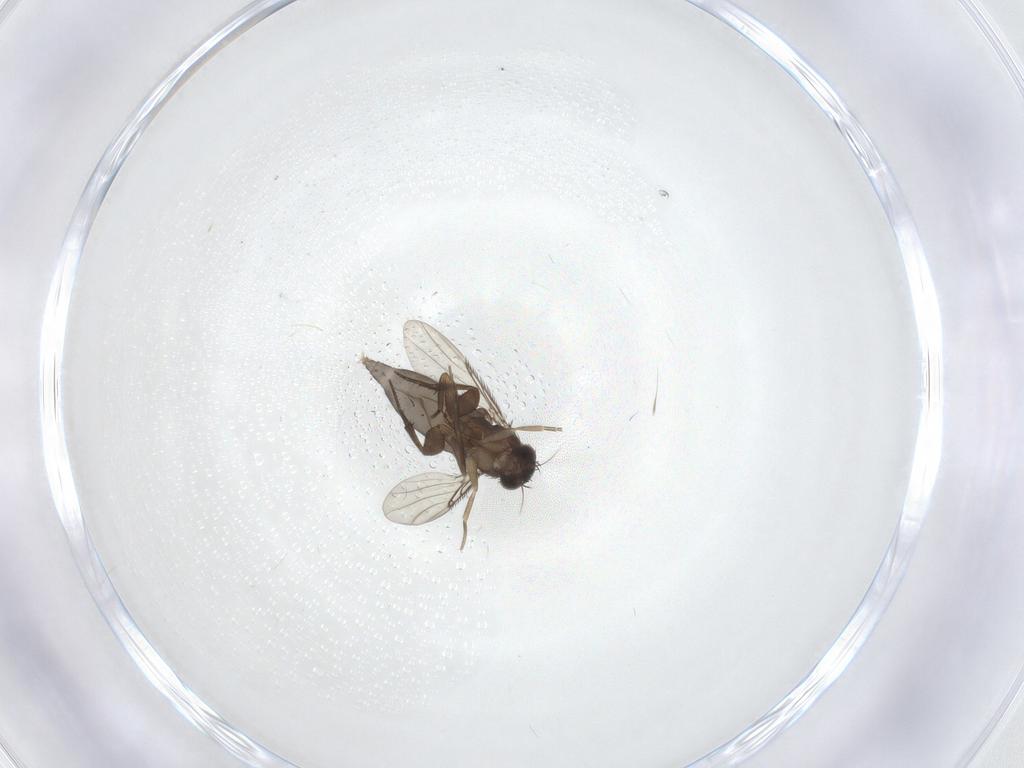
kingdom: Animalia
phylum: Arthropoda
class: Insecta
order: Diptera
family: Phoridae
